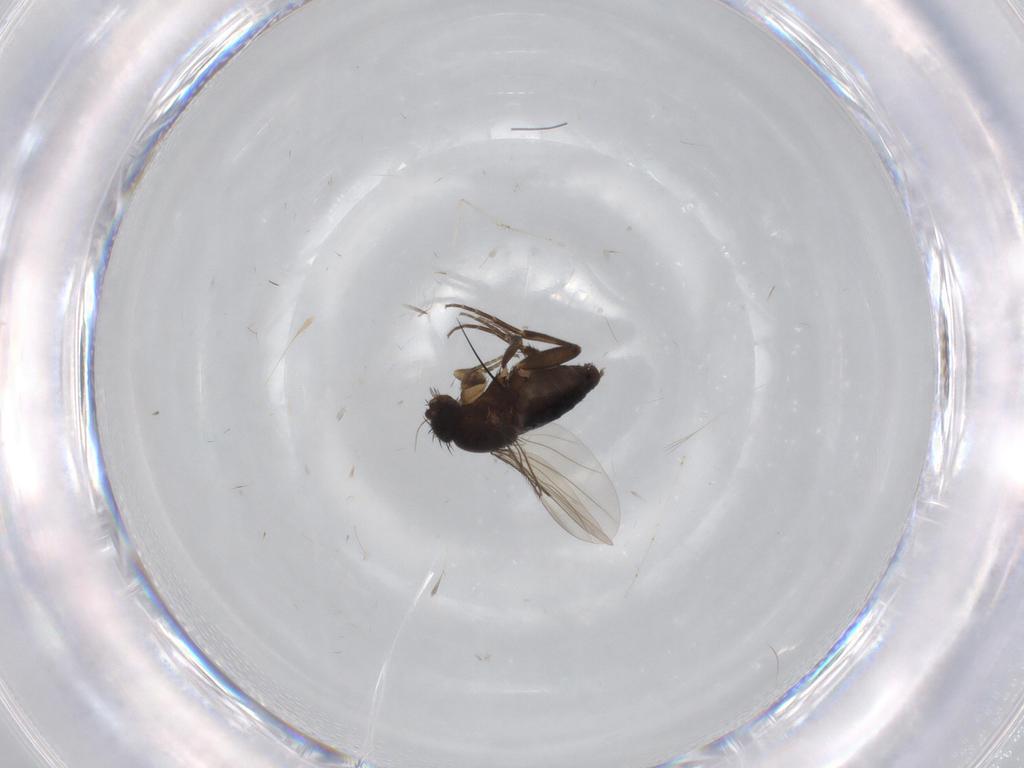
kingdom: Animalia
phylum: Arthropoda
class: Insecta
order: Diptera
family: Phoridae
